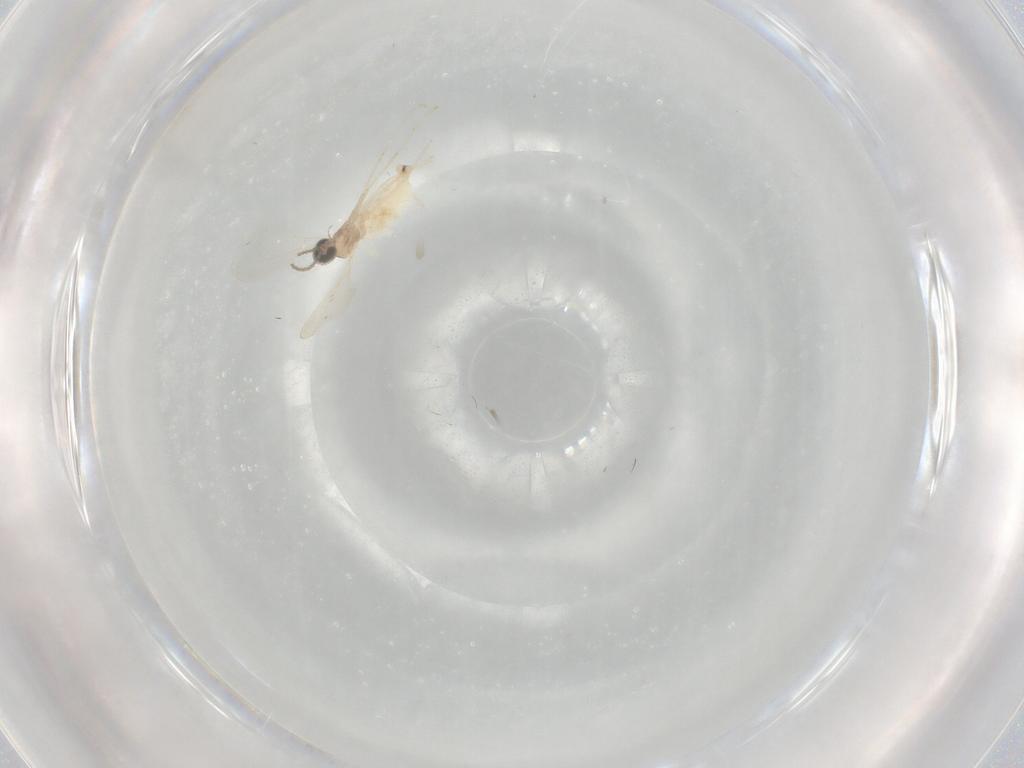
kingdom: Animalia
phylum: Arthropoda
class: Insecta
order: Diptera
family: Cecidomyiidae
